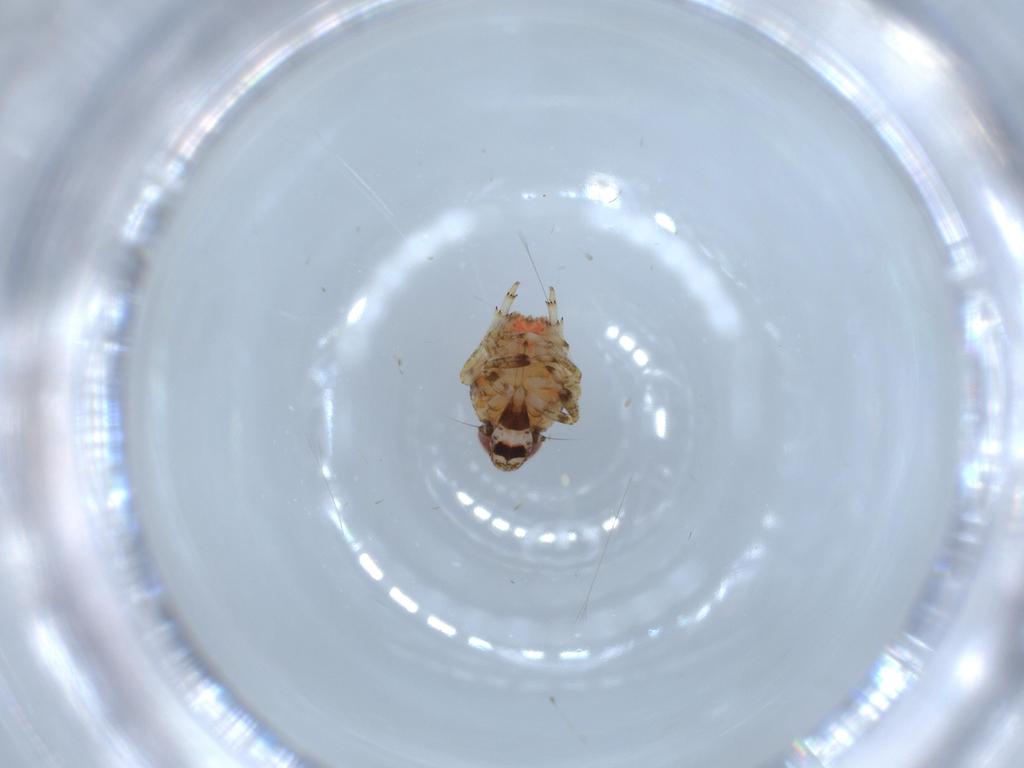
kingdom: Animalia
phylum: Arthropoda
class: Insecta
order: Hemiptera
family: Issidae
